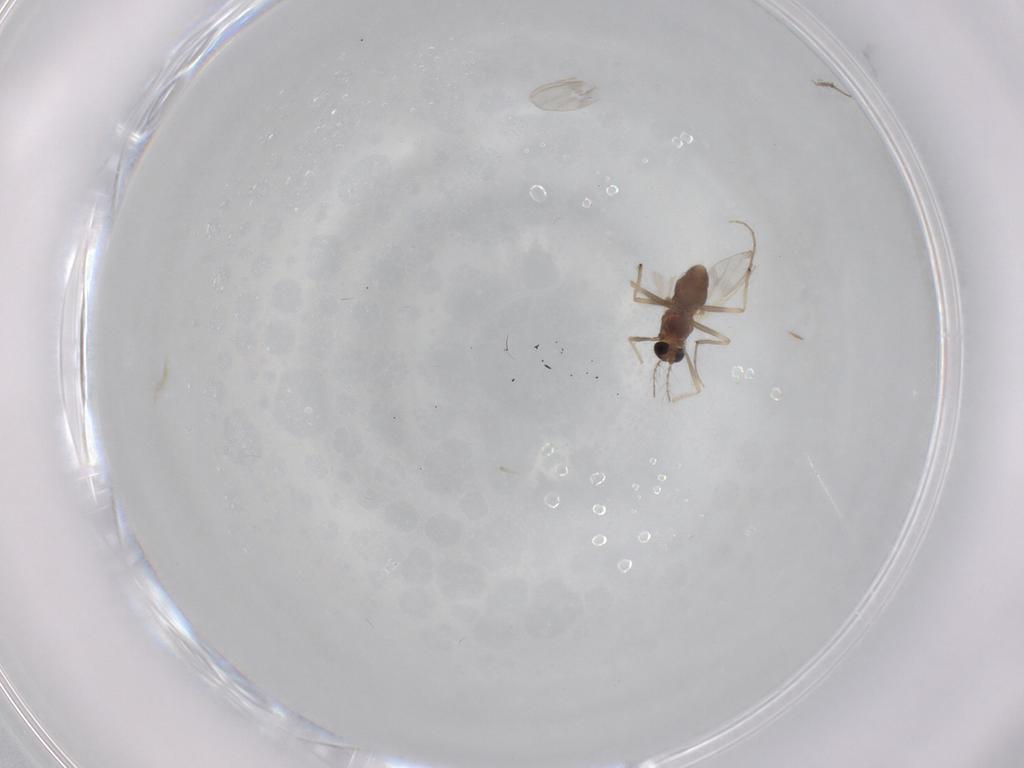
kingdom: Animalia
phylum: Arthropoda
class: Insecta
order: Diptera
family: Chironomidae
